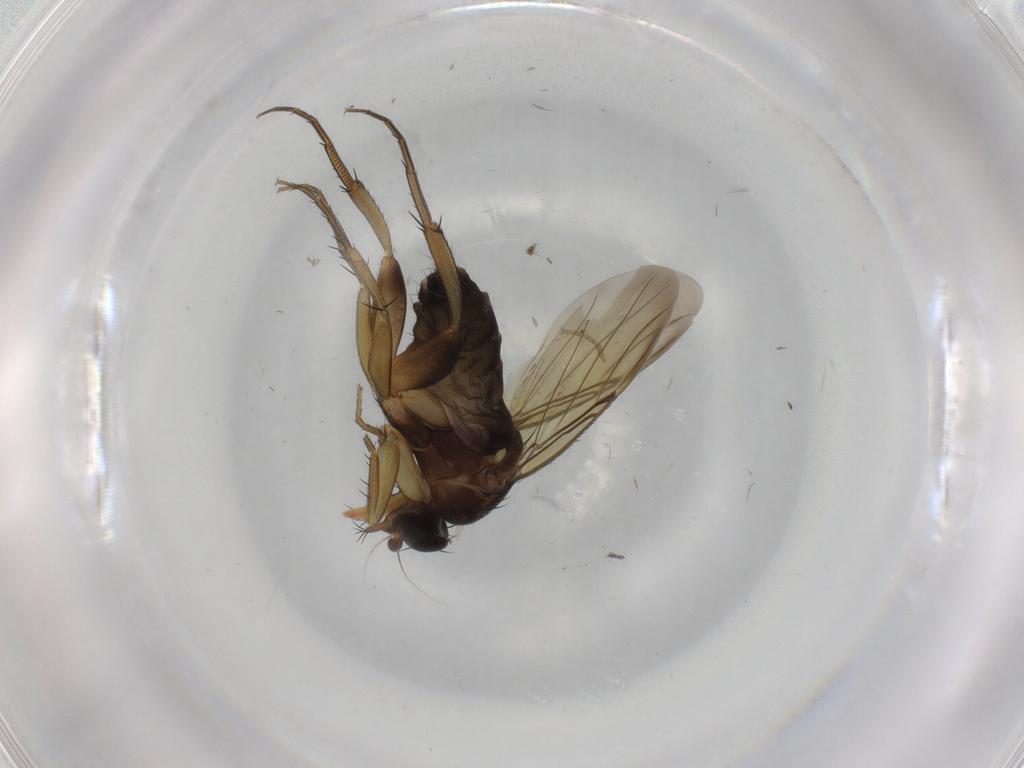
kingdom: Animalia
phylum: Arthropoda
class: Insecta
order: Diptera
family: Sciaridae
